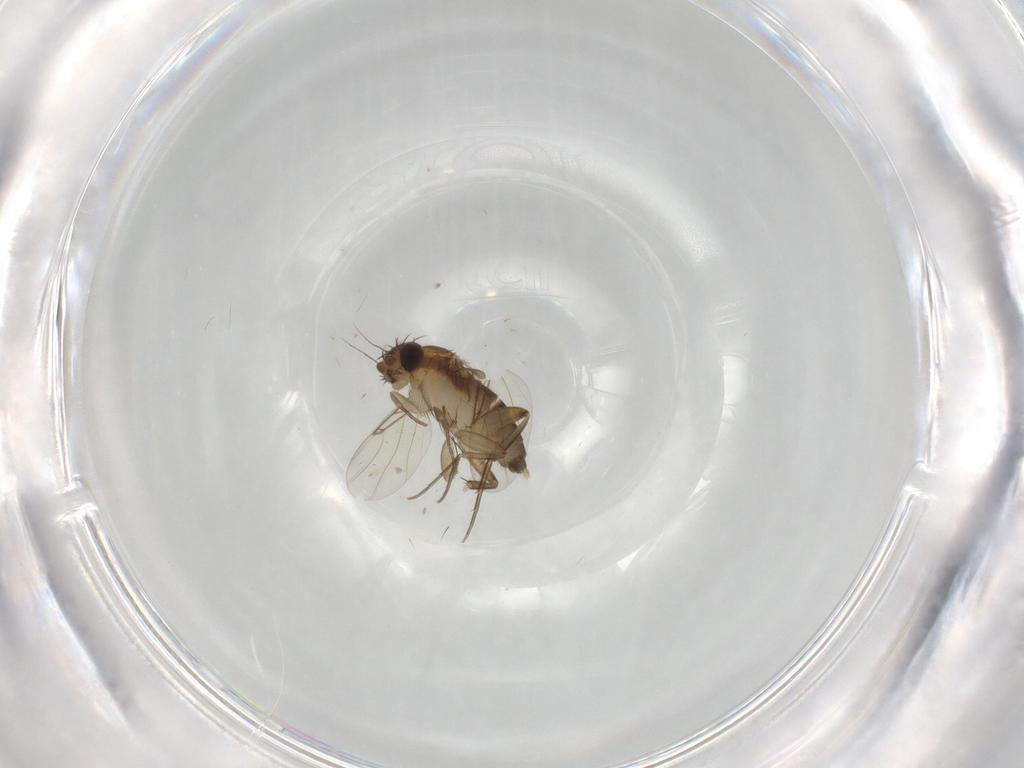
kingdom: Animalia
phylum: Arthropoda
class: Insecta
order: Diptera
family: Phoridae
